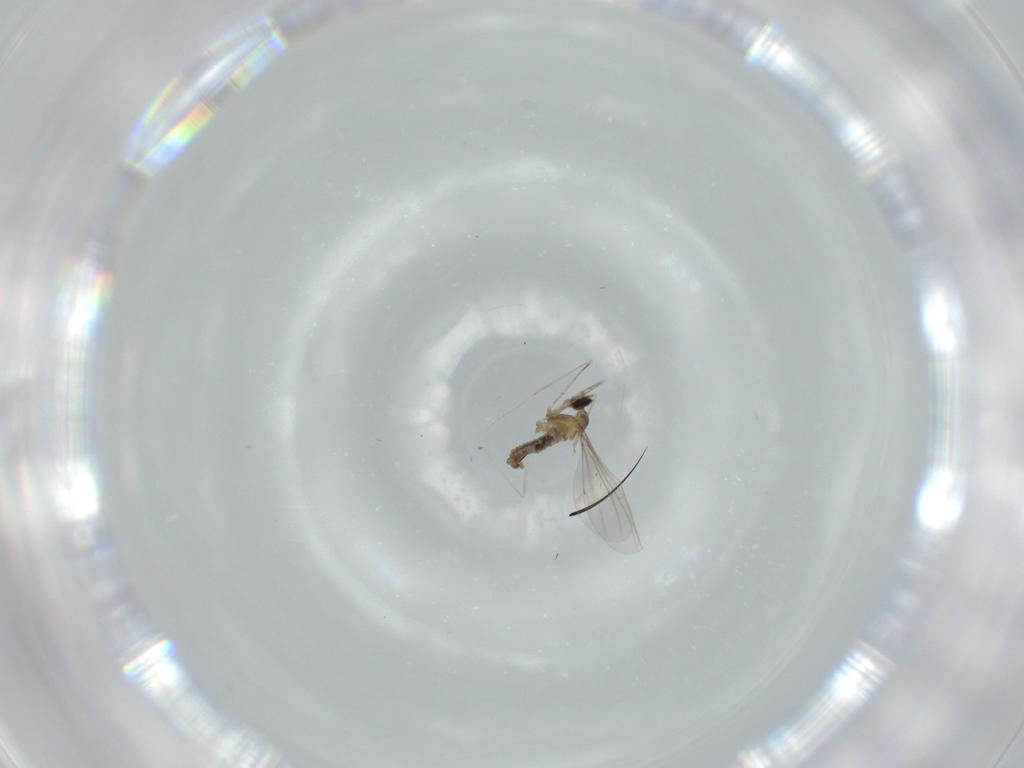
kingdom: Animalia
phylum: Arthropoda
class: Insecta
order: Diptera
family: Cecidomyiidae
